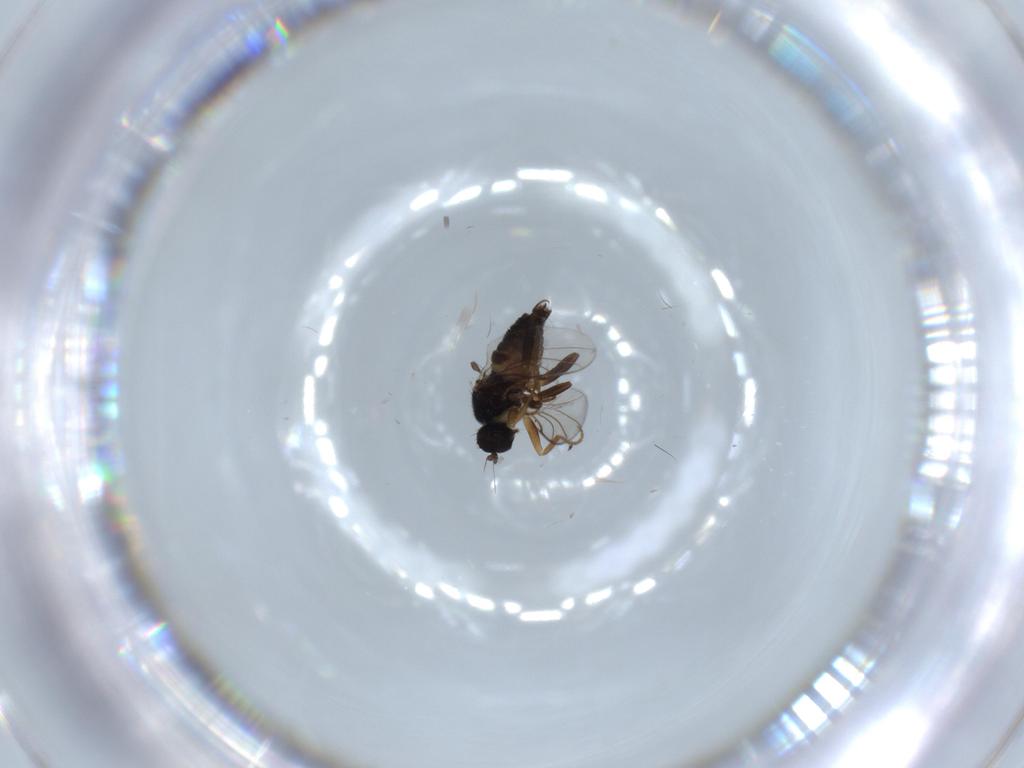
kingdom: Animalia
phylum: Arthropoda
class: Insecta
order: Diptera
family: Hybotidae
